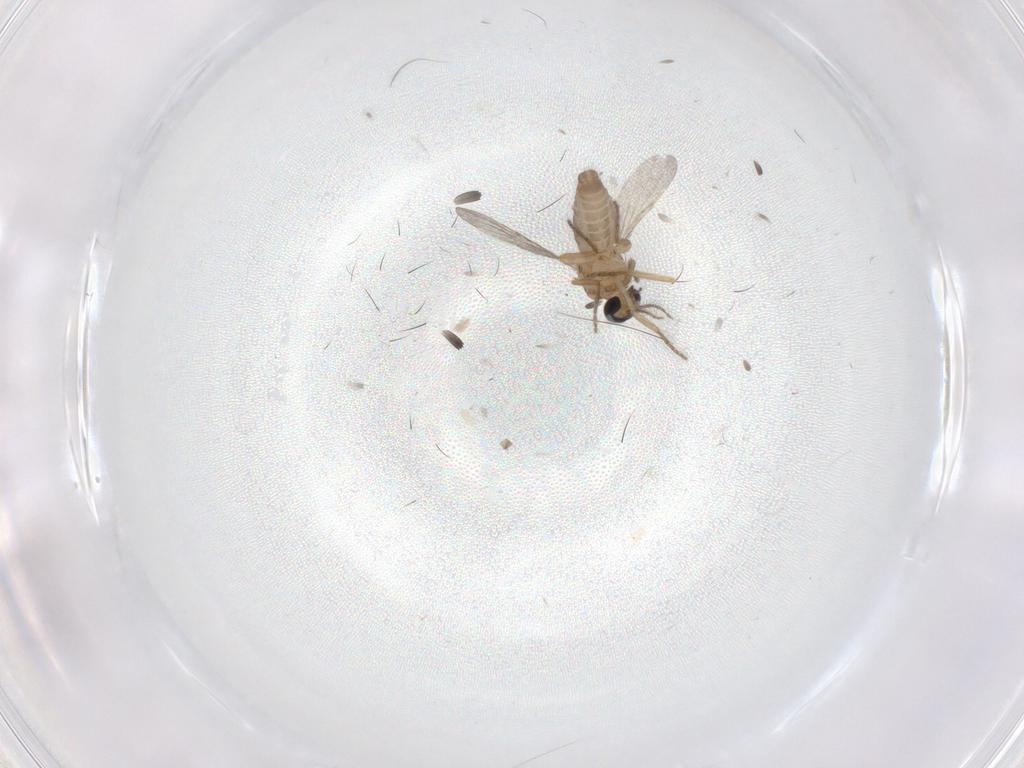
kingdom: Animalia
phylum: Arthropoda
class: Insecta
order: Diptera
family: Ceratopogonidae
